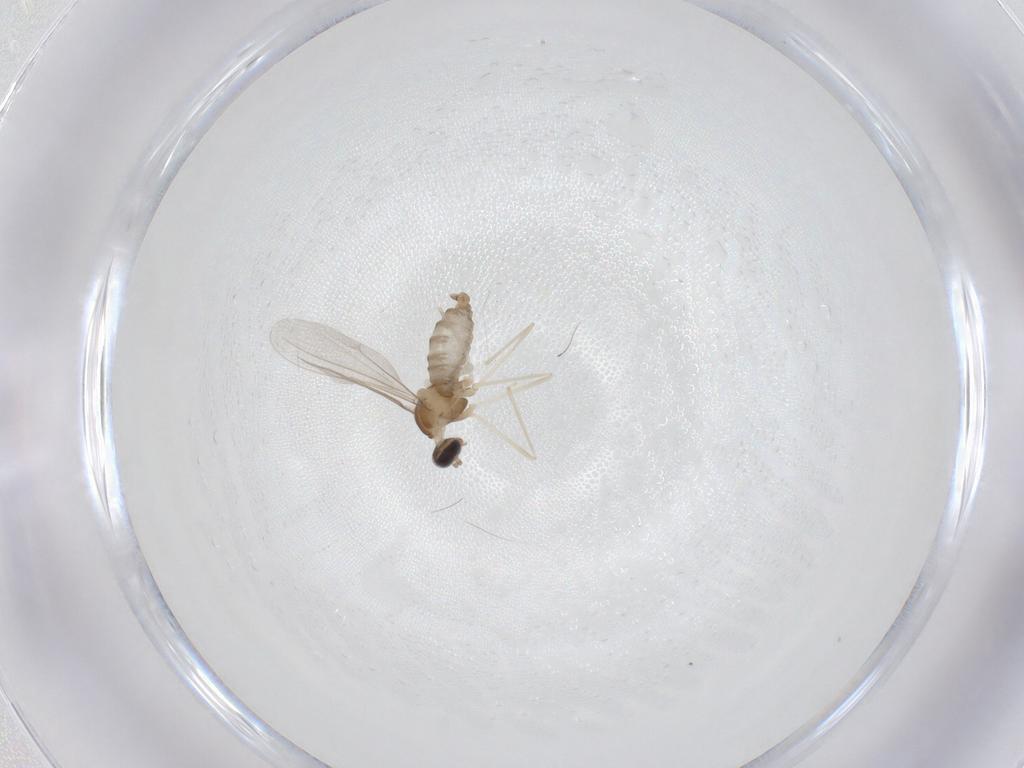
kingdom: Animalia
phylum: Arthropoda
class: Insecta
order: Diptera
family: Cecidomyiidae
